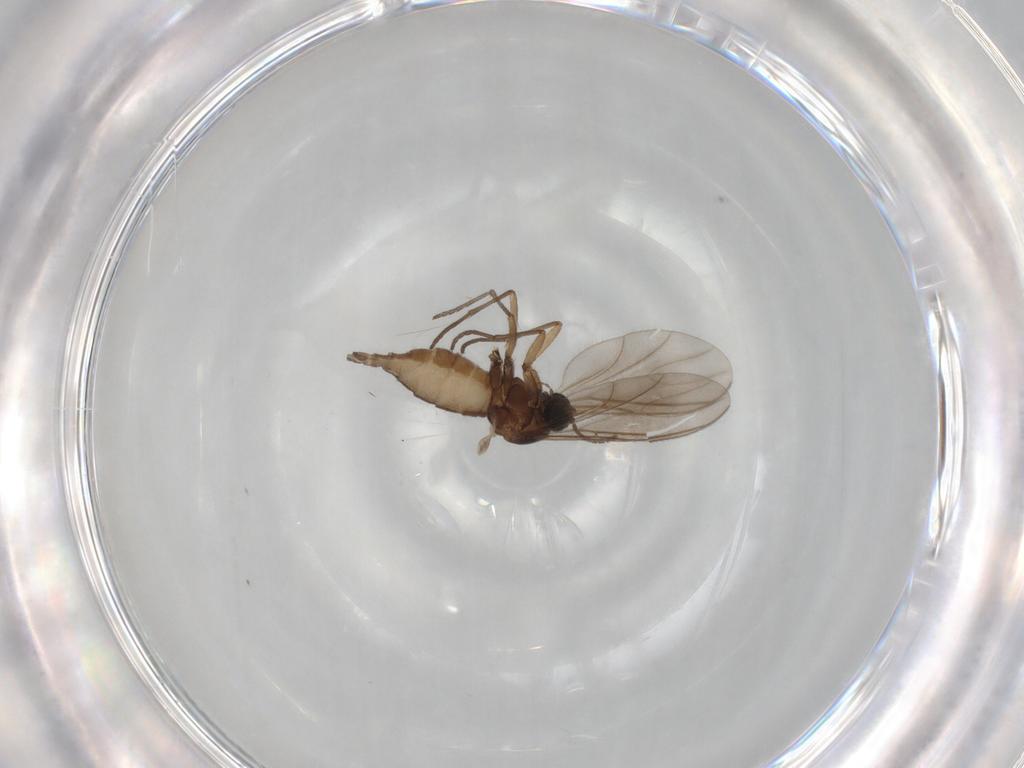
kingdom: Animalia
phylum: Arthropoda
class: Insecta
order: Diptera
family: Sciaridae
